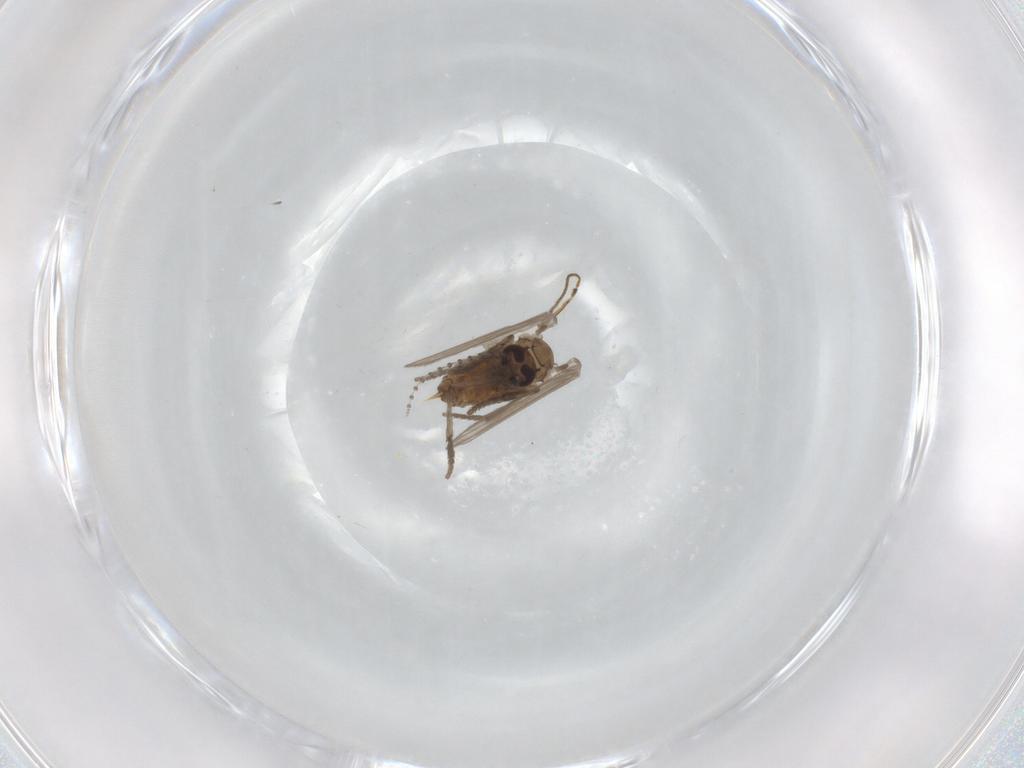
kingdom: Animalia
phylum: Arthropoda
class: Insecta
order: Diptera
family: Psychodidae
